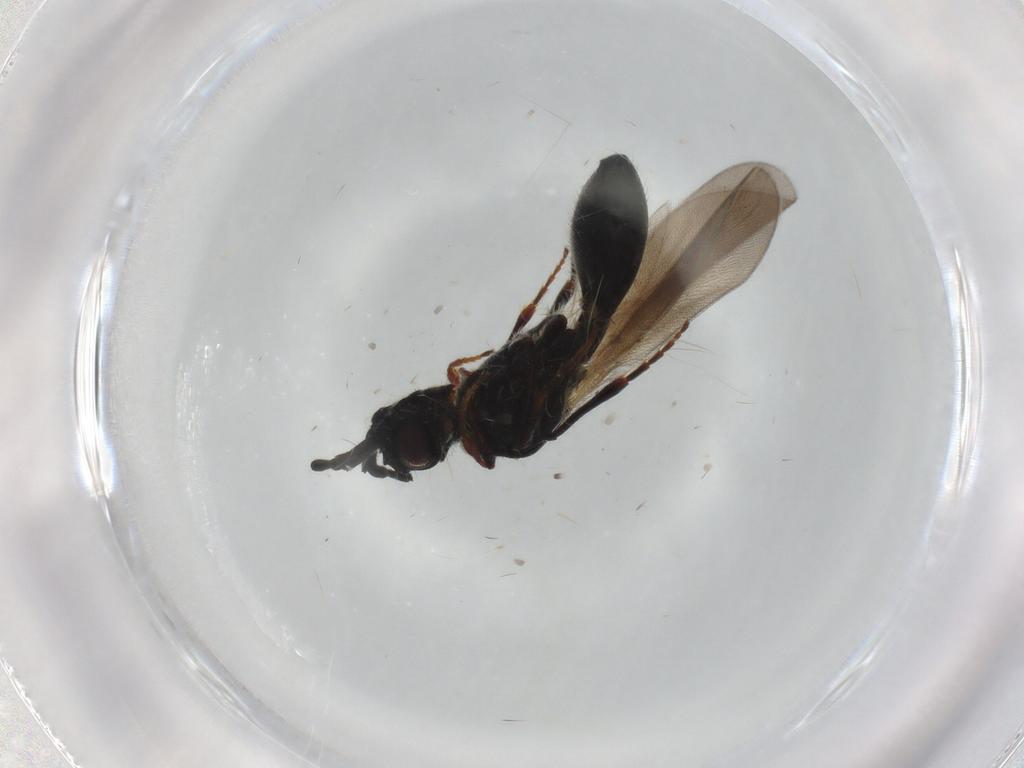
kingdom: Animalia
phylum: Arthropoda
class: Insecta
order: Hymenoptera
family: Diapriidae
